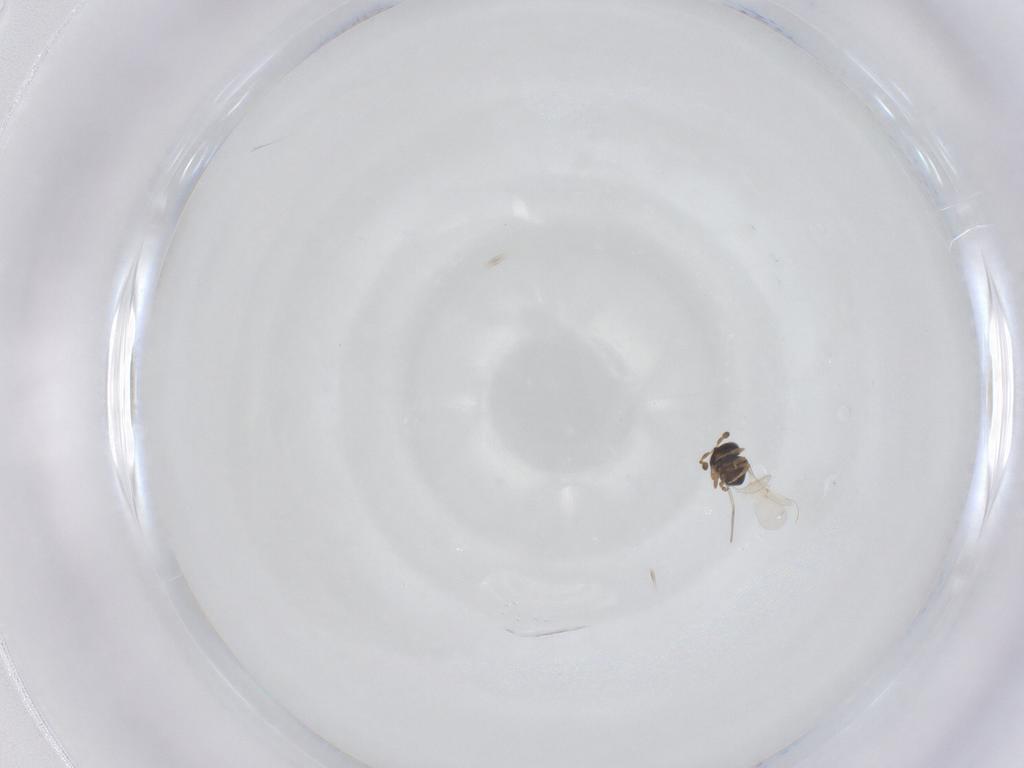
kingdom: Animalia
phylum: Arthropoda
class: Insecta
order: Hymenoptera
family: Scelionidae
